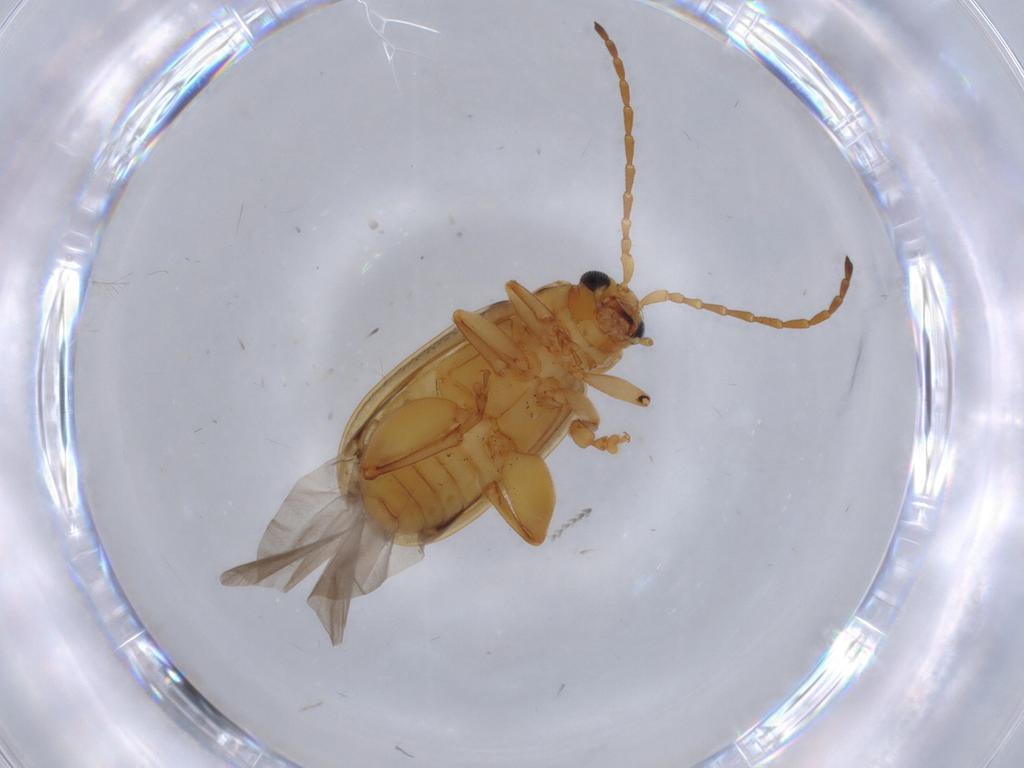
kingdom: Animalia
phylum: Arthropoda
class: Insecta
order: Coleoptera
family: Chrysomelidae
